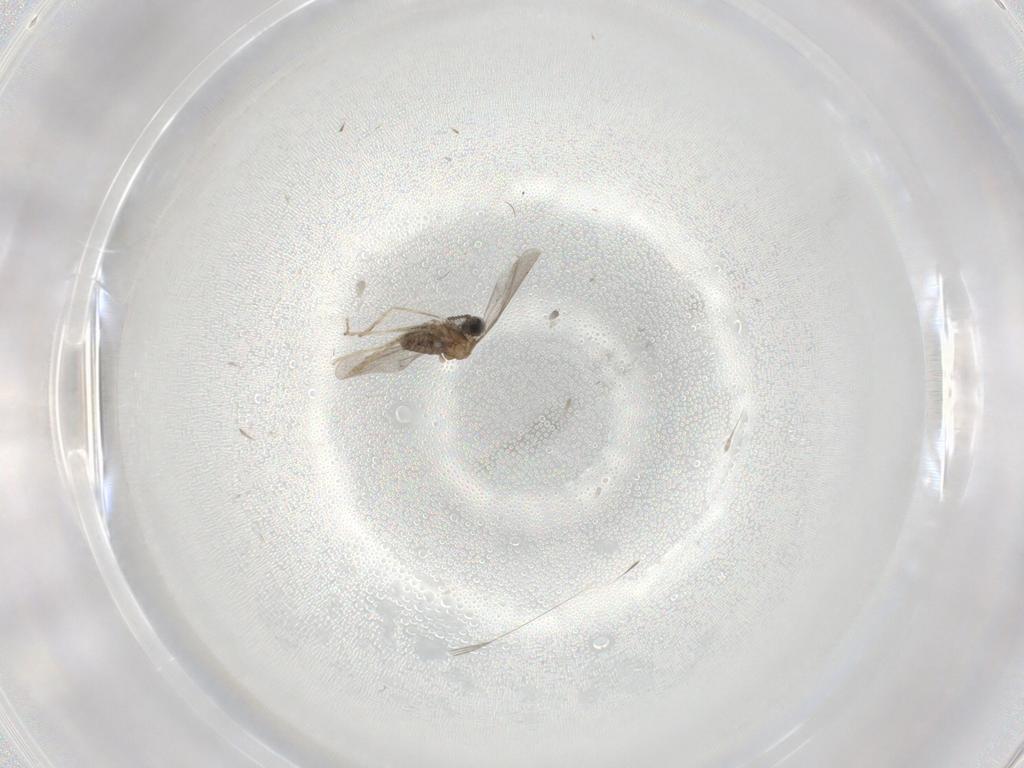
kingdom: Animalia
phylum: Arthropoda
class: Insecta
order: Diptera
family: Cecidomyiidae
